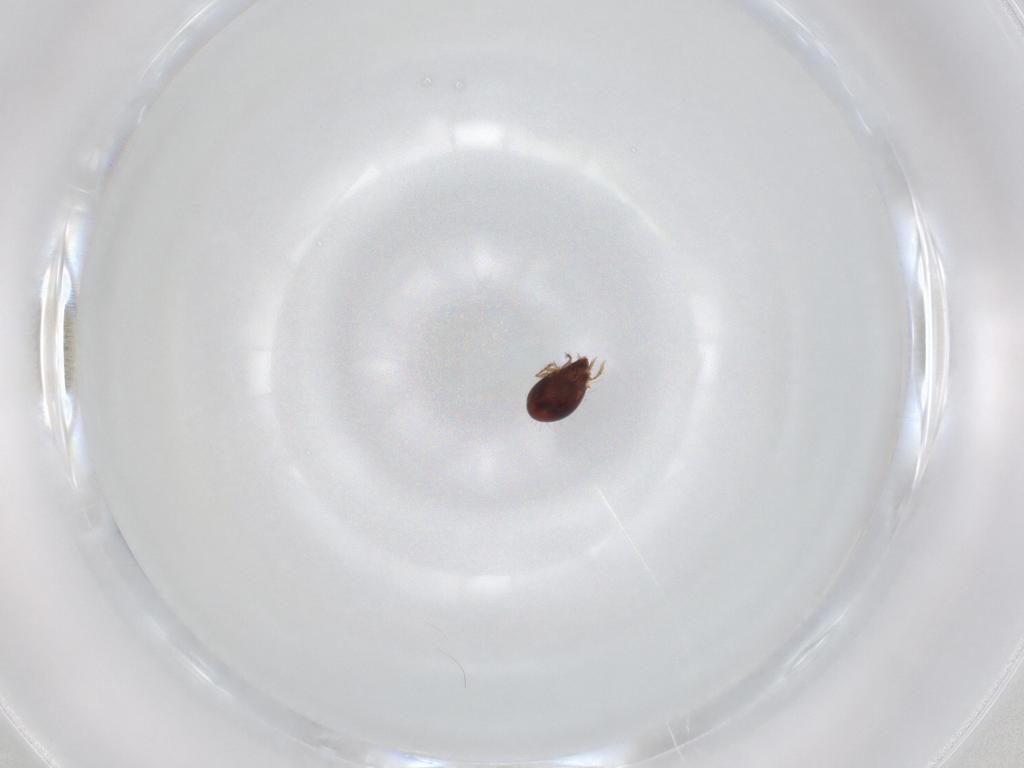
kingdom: Animalia
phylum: Arthropoda
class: Arachnida
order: Sarcoptiformes
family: Humerobatidae
